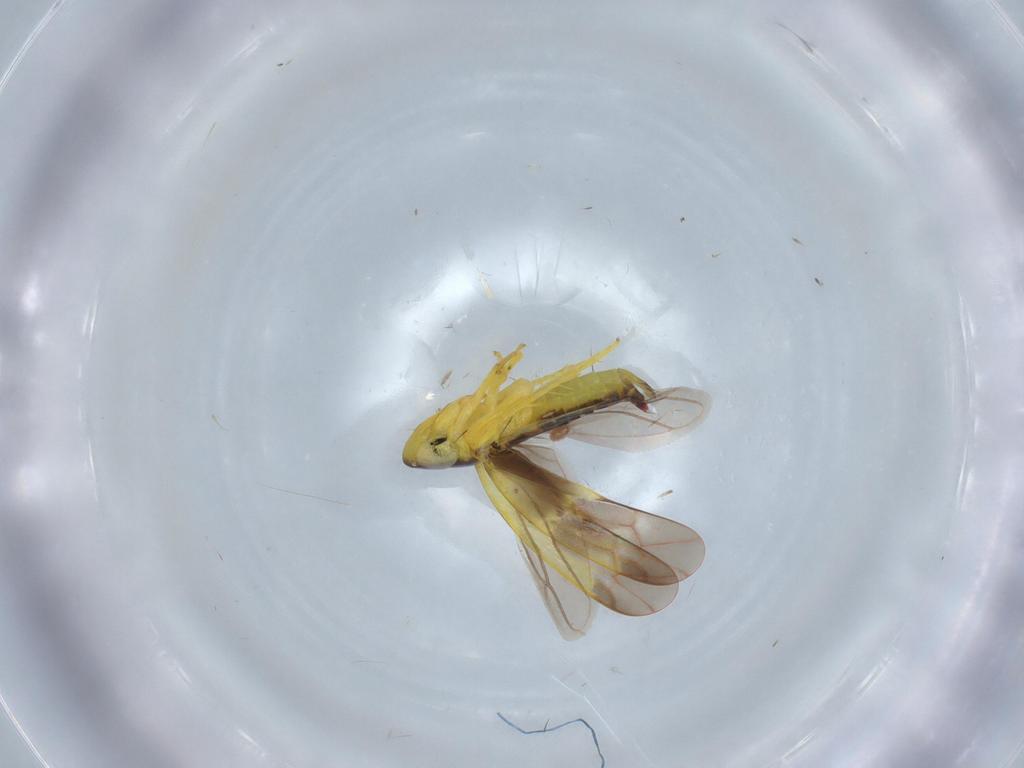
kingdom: Animalia
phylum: Arthropoda
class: Insecta
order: Hemiptera
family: Cicadellidae
